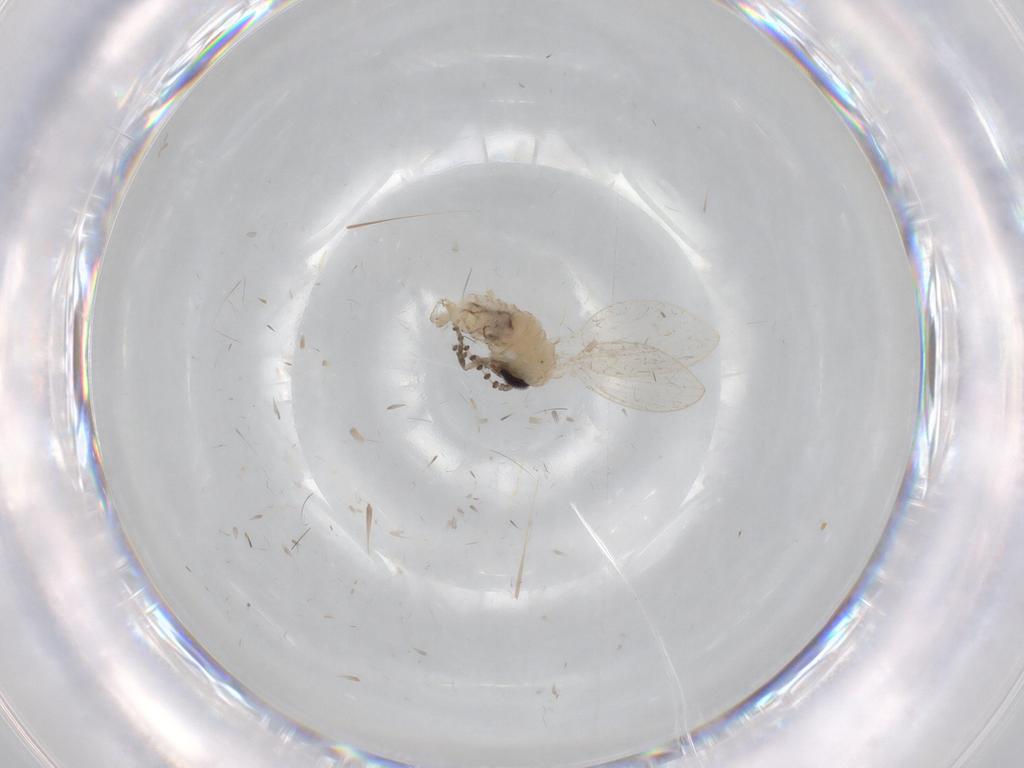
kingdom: Animalia
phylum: Arthropoda
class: Insecta
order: Diptera
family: Psychodidae
